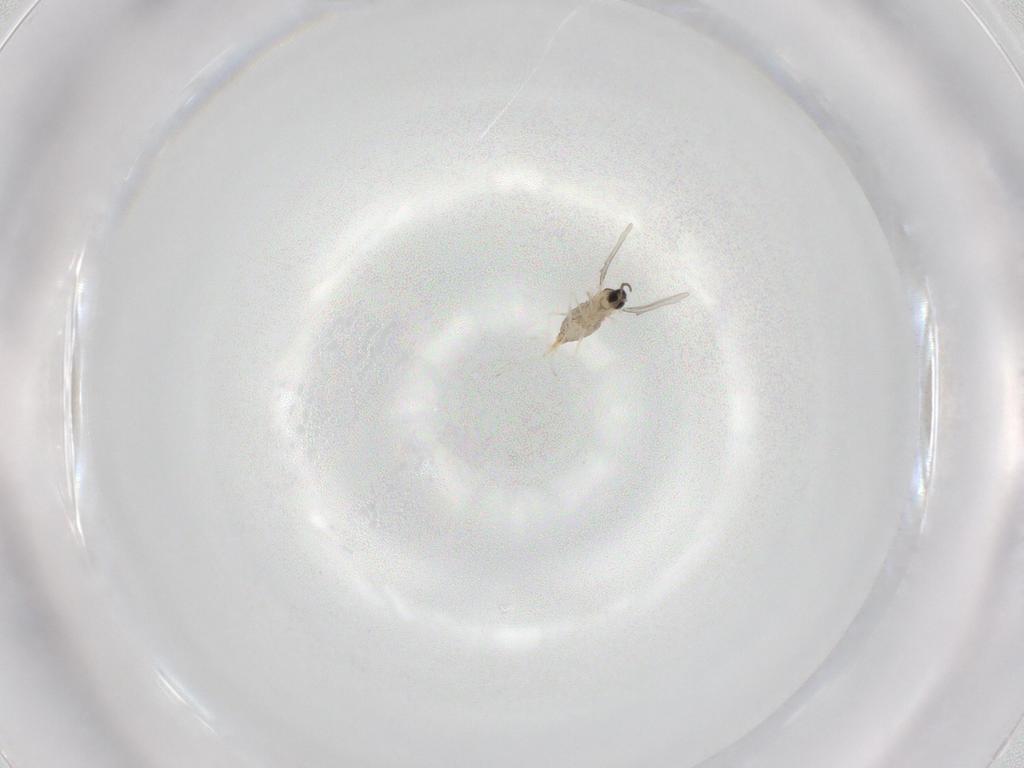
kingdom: Animalia
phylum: Arthropoda
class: Insecta
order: Diptera
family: Cecidomyiidae
